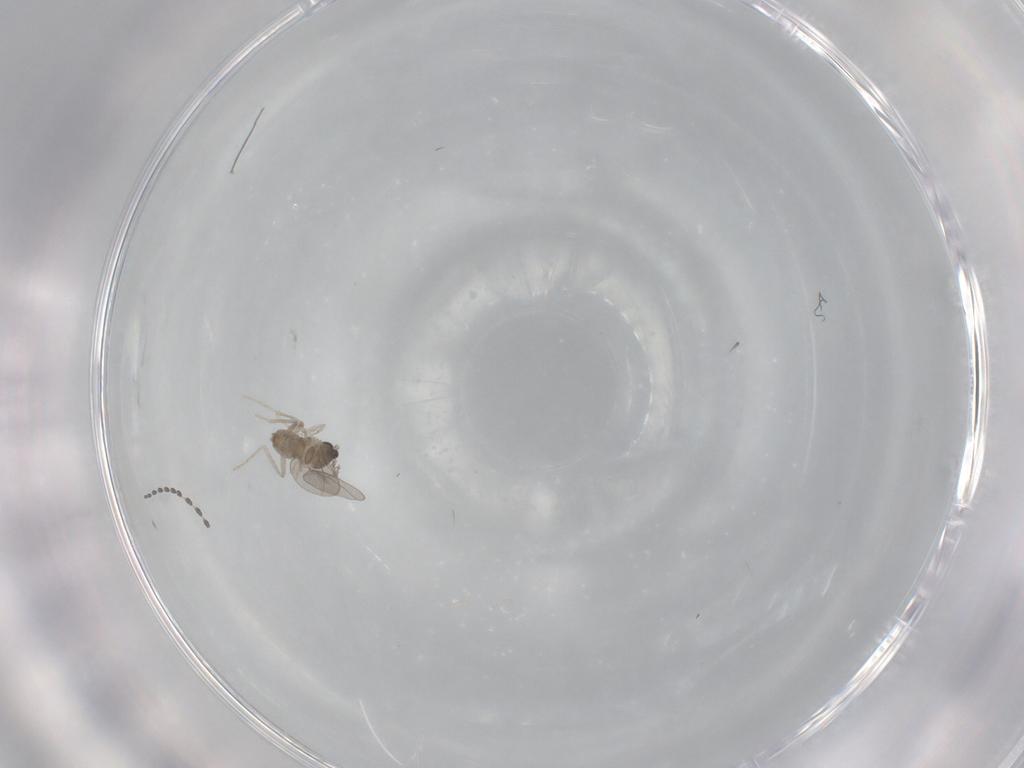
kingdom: Animalia
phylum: Arthropoda
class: Insecta
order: Diptera
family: Cecidomyiidae
